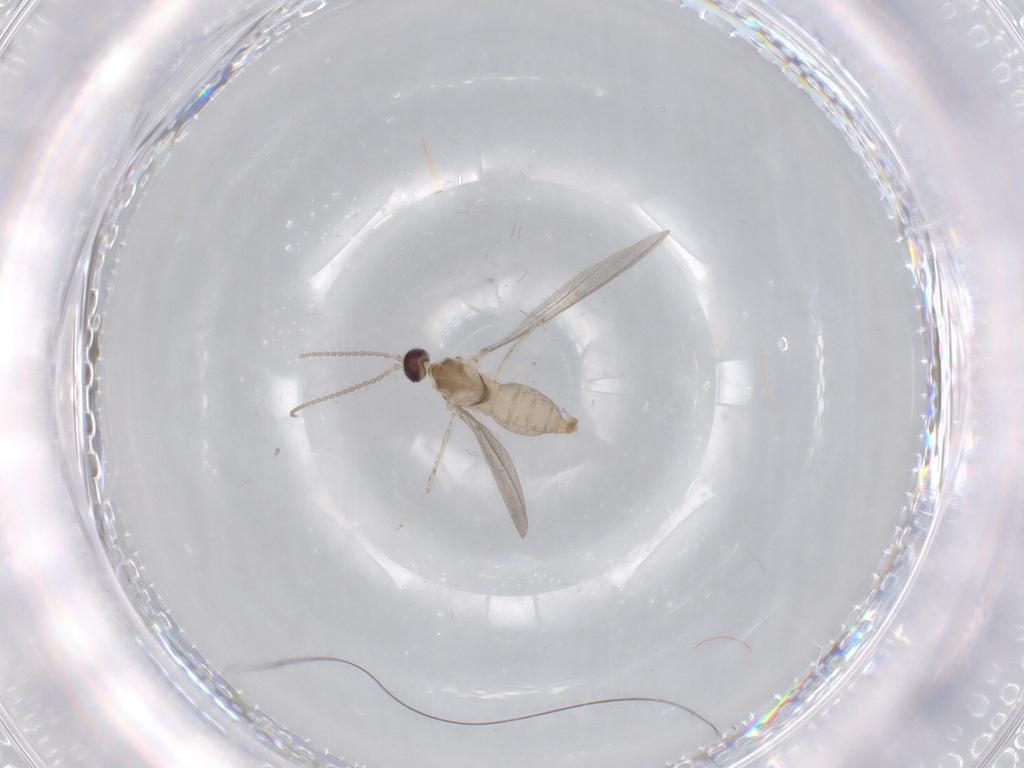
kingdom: Animalia
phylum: Arthropoda
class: Insecta
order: Diptera
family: Cecidomyiidae
